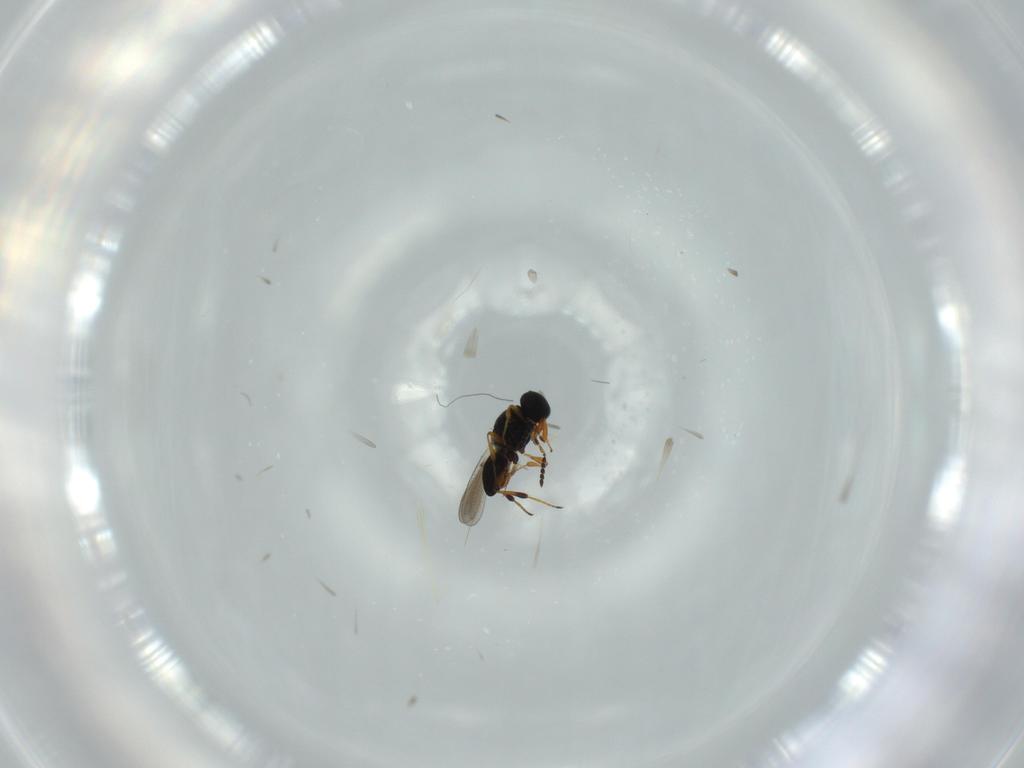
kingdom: Animalia
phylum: Arthropoda
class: Insecta
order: Hymenoptera
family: Platygastridae
